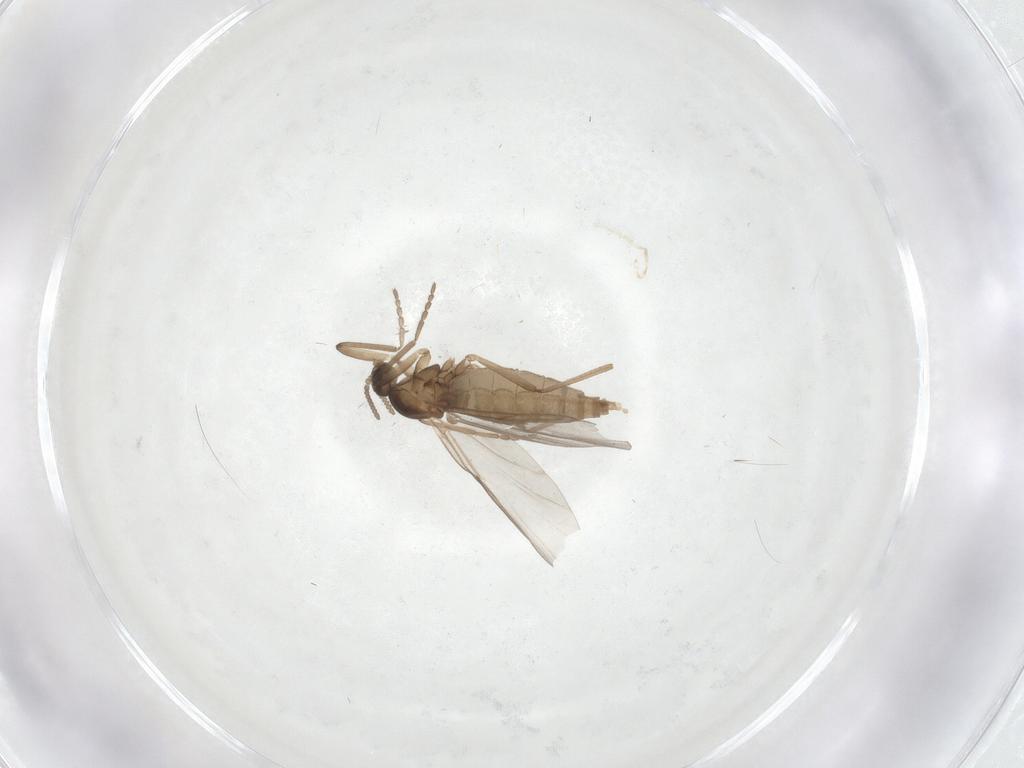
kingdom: Animalia
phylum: Arthropoda
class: Insecta
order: Diptera
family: Cecidomyiidae
